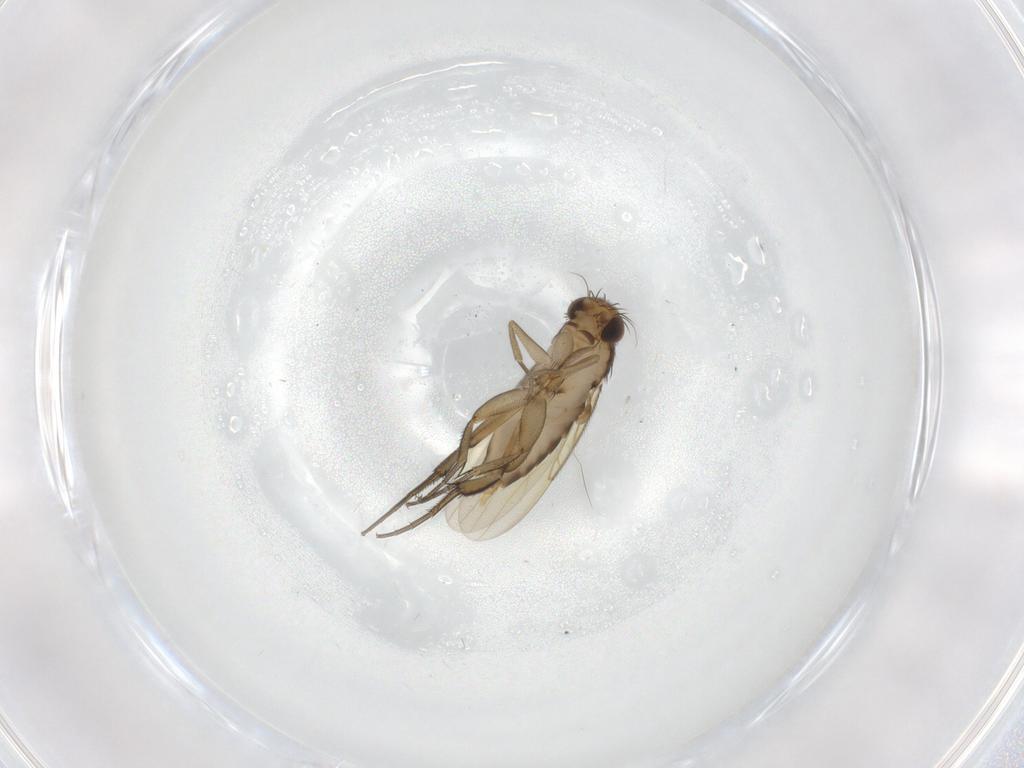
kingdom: Animalia
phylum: Arthropoda
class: Insecta
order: Diptera
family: Phoridae
